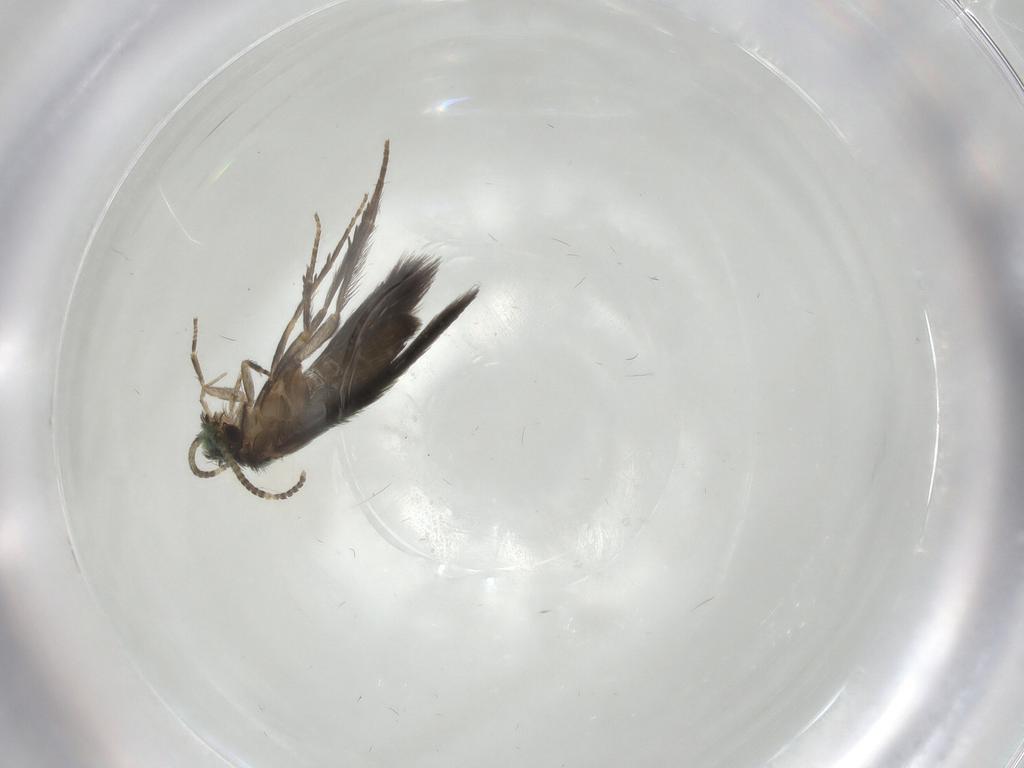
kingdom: Animalia
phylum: Arthropoda
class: Insecta
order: Trichoptera
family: Hydroptilidae
